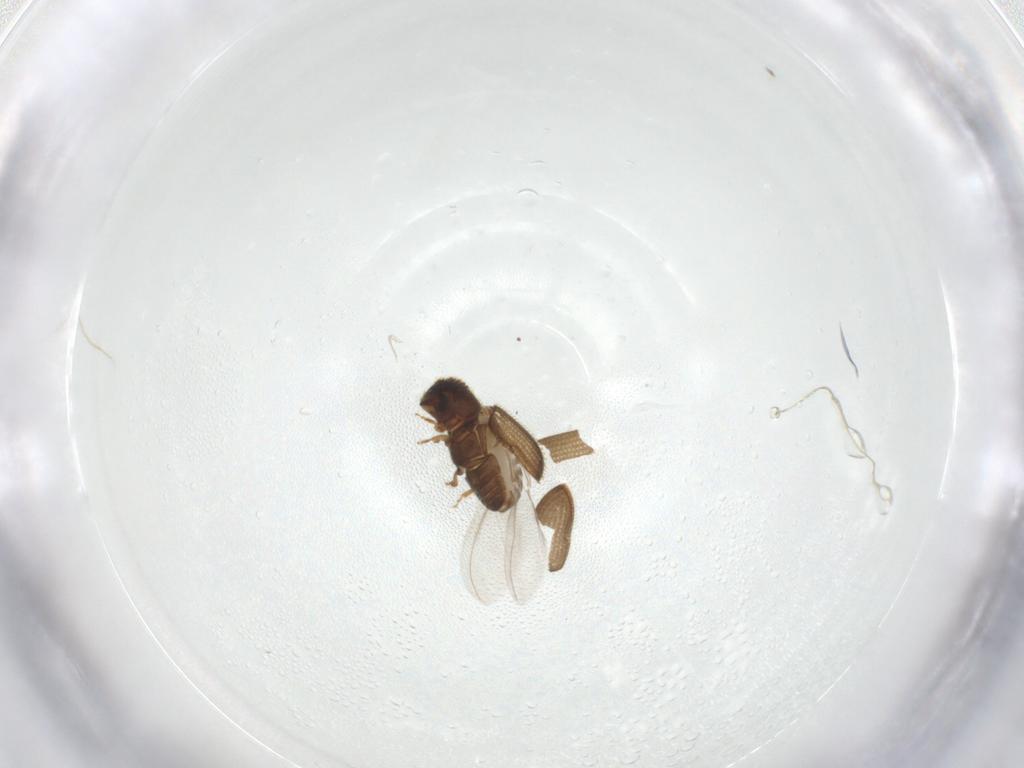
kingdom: Animalia
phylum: Arthropoda
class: Insecta
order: Coleoptera
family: Curculionidae
